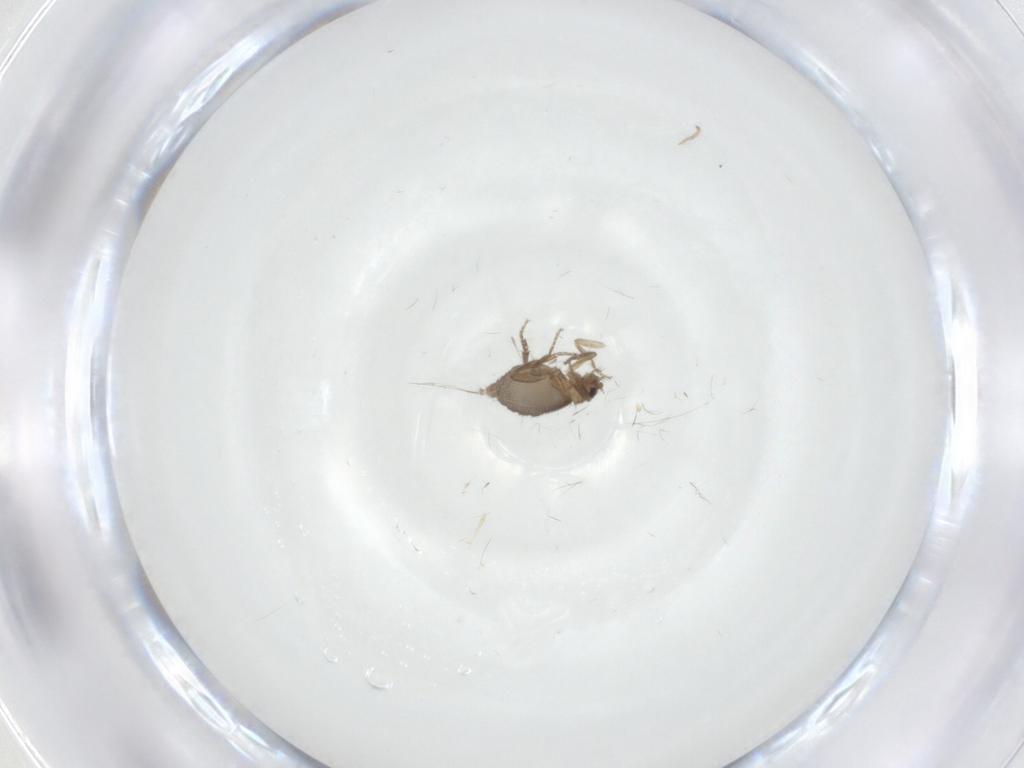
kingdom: Animalia
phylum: Arthropoda
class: Insecta
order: Diptera
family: Phoridae
